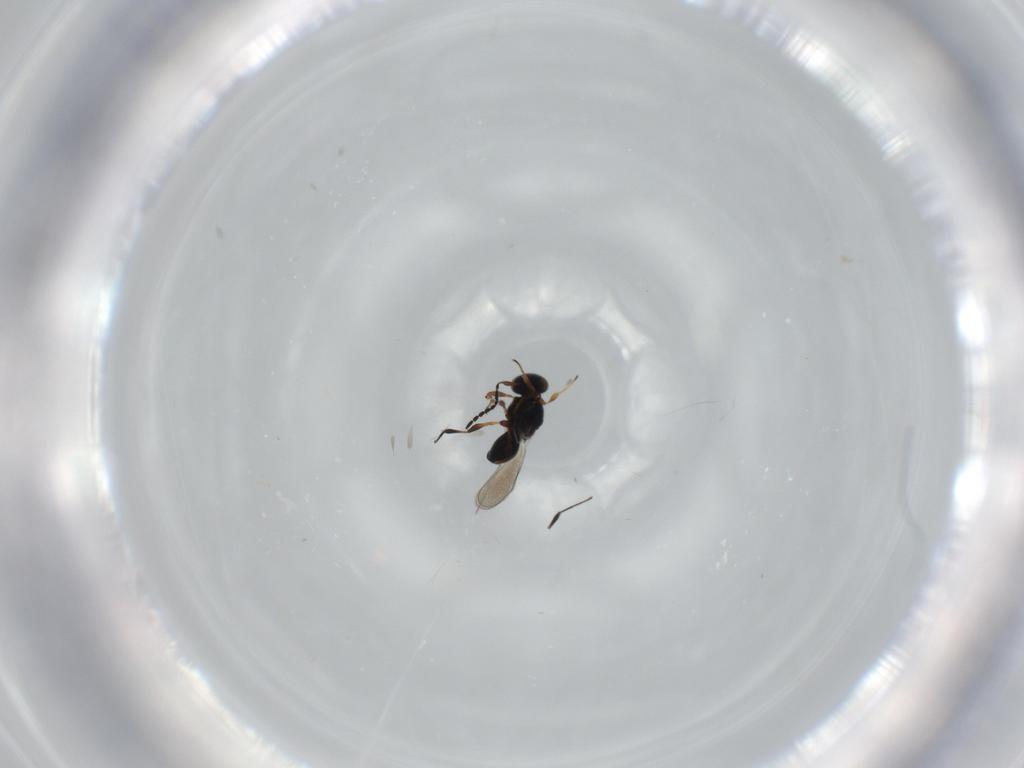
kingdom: Animalia
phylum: Arthropoda
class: Insecta
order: Hymenoptera
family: Platygastridae
